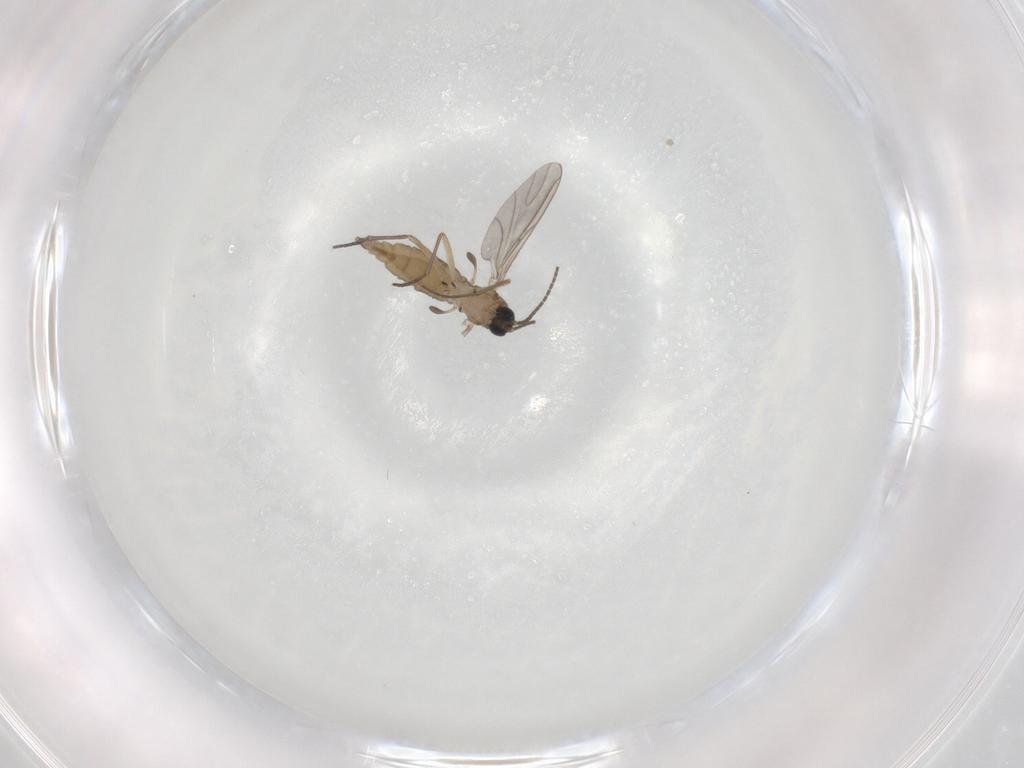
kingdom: Animalia
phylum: Arthropoda
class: Insecta
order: Diptera
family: Sciaridae
